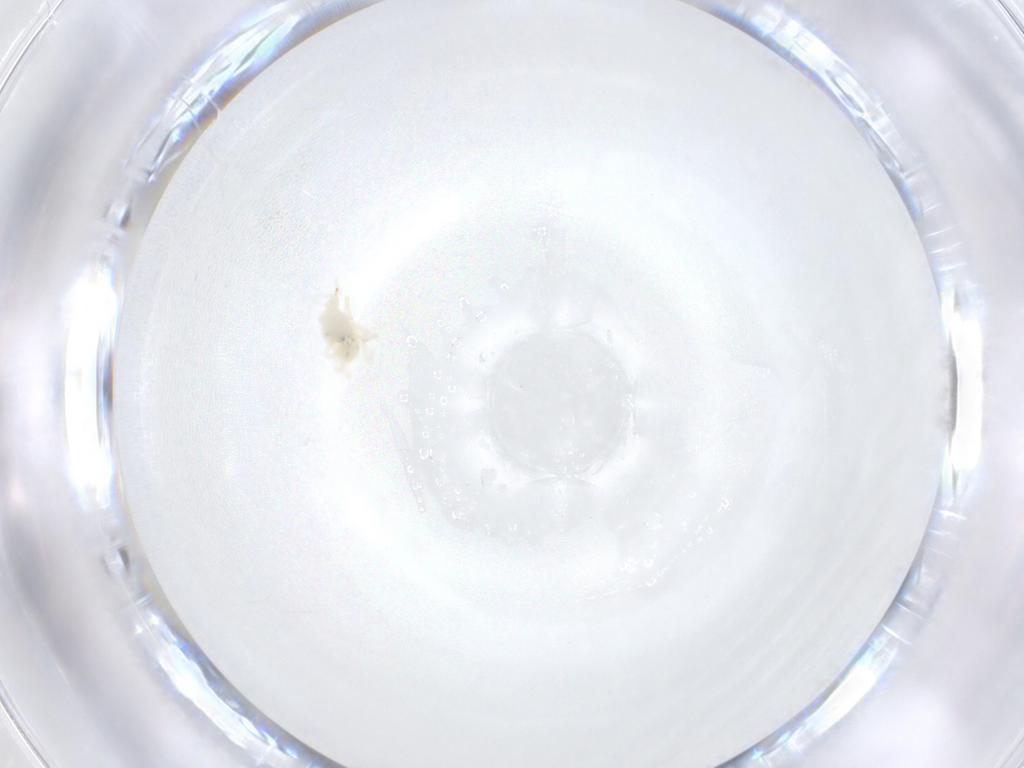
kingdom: Animalia
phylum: Arthropoda
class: Arachnida
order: Trombidiformes
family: Bdellidae
